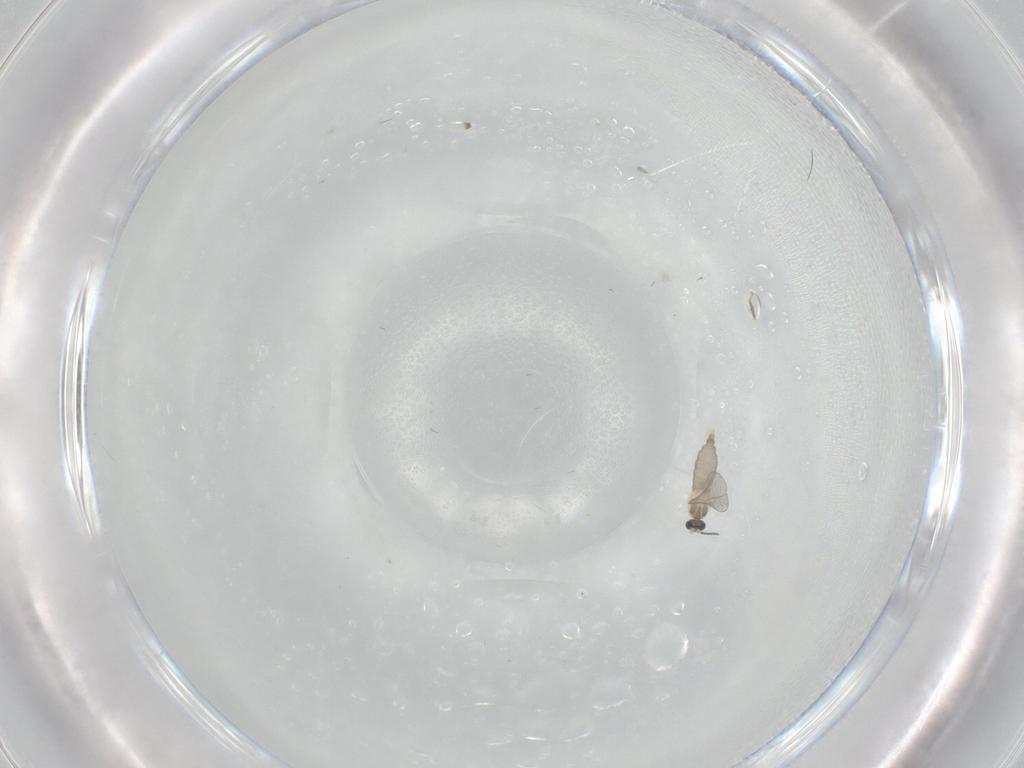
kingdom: Animalia
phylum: Arthropoda
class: Insecta
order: Diptera
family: Cecidomyiidae
